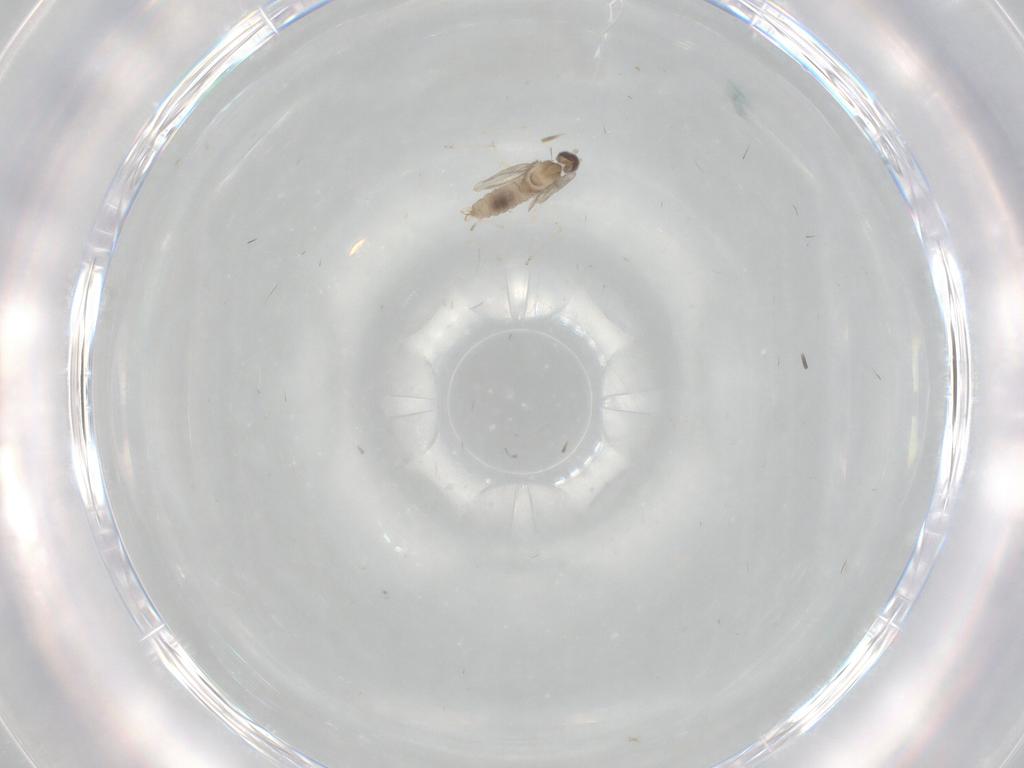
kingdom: Animalia
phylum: Arthropoda
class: Insecta
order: Diptera
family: Cecidomyiidae
